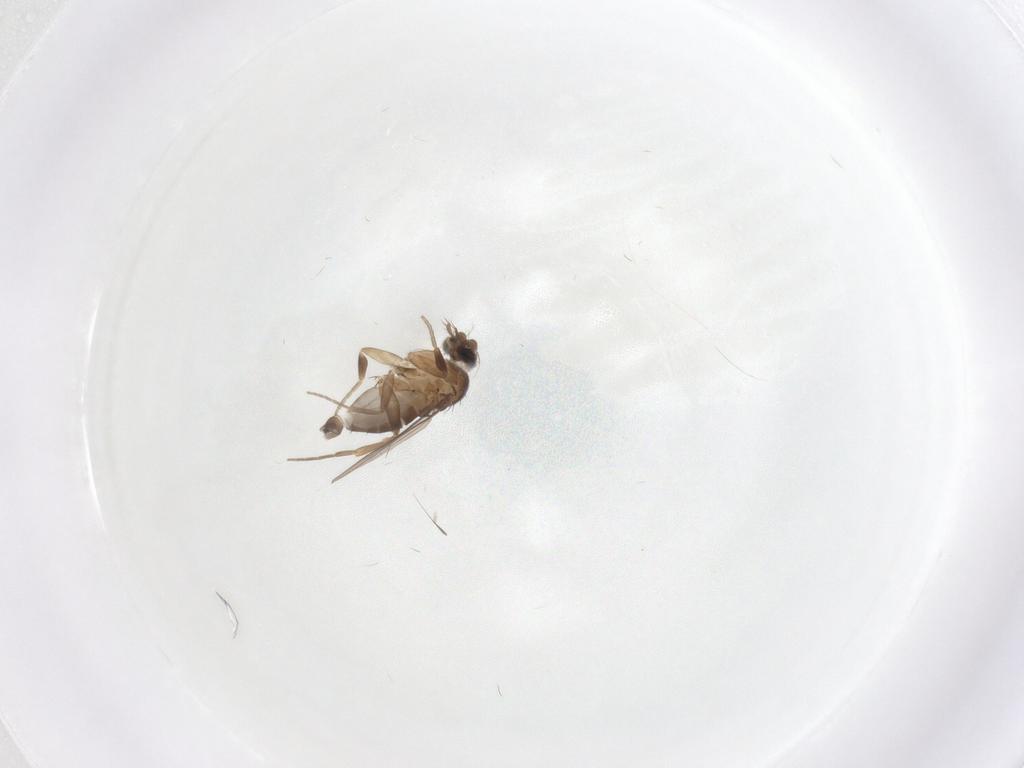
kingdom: Animalia
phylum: Arthropoda
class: Insecta
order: Diptera
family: Phoridae
